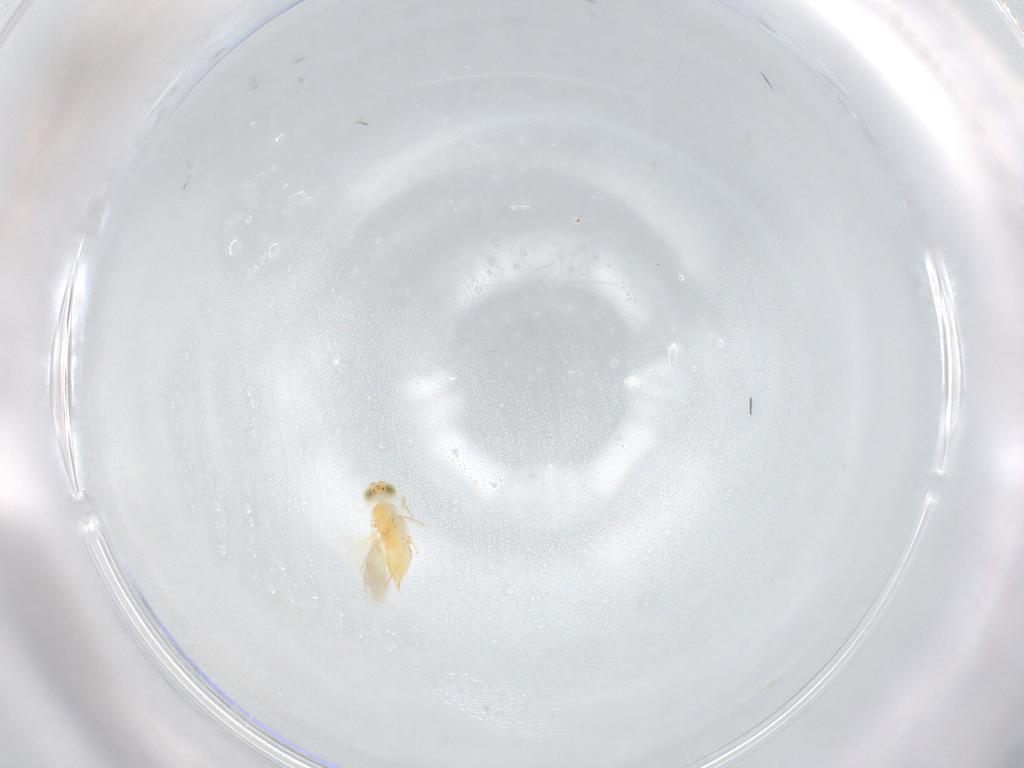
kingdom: Animalia
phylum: Arthropoda
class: Insecta
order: Hymenoptera
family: Aphelinidae
